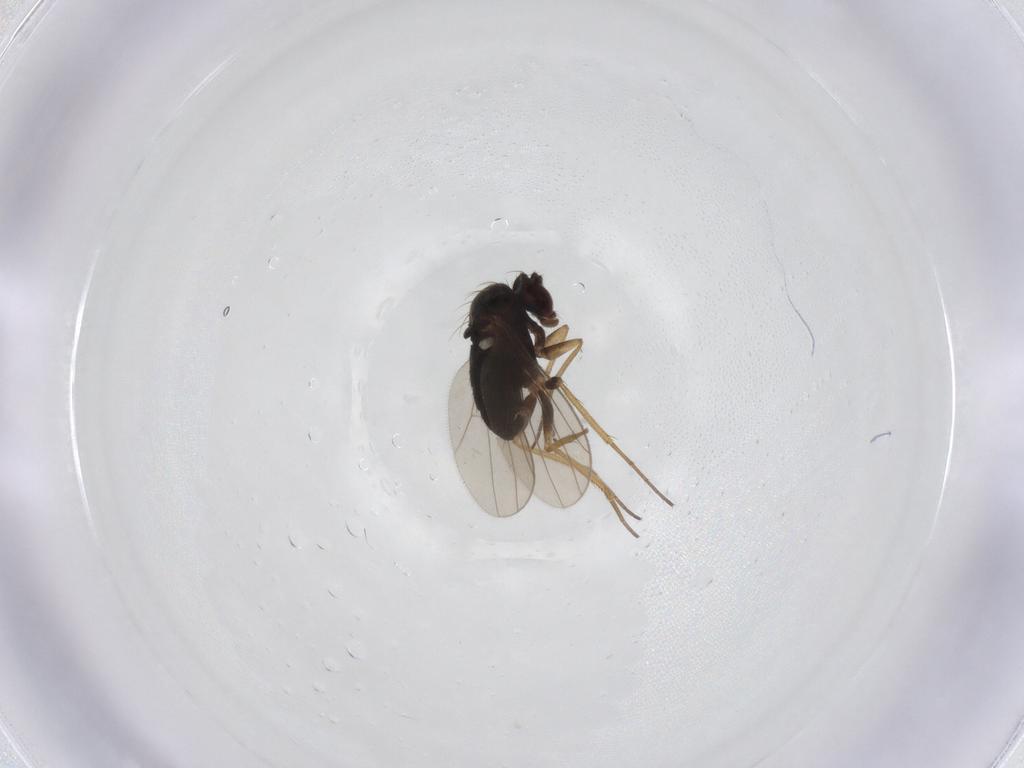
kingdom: Animalia
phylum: Arthropoda
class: Insecta
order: Diptera
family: Dolichopodidae
